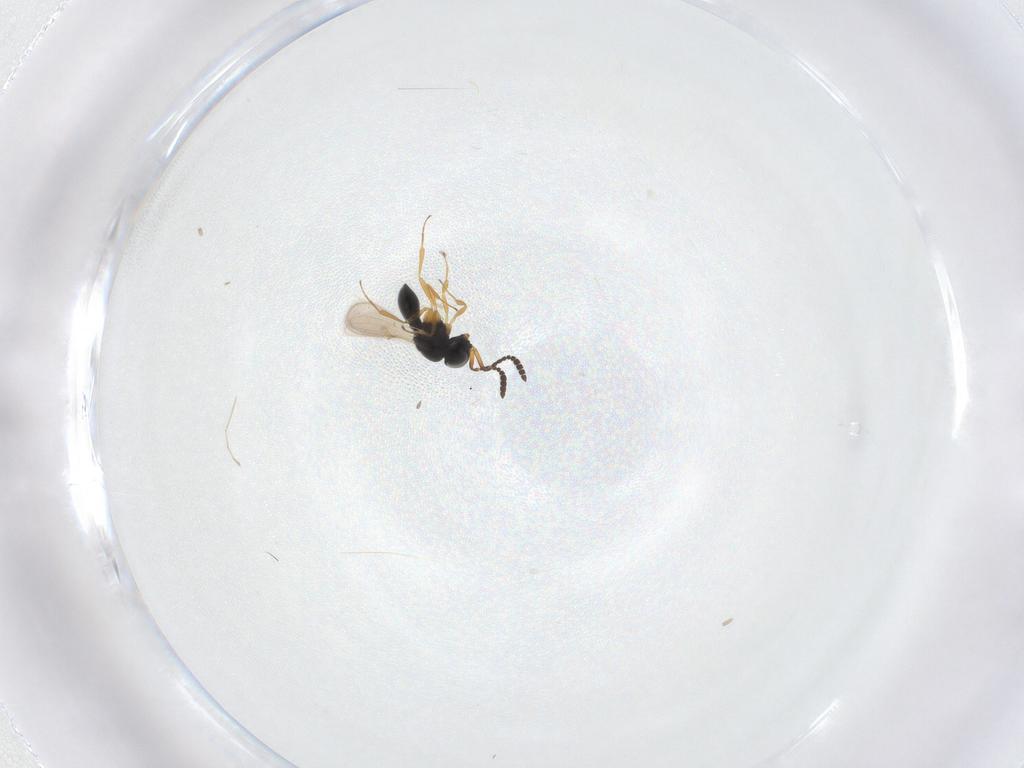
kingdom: Animalia
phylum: Arthropoda
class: Insecta
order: Hymenoptera
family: Scelionidae
